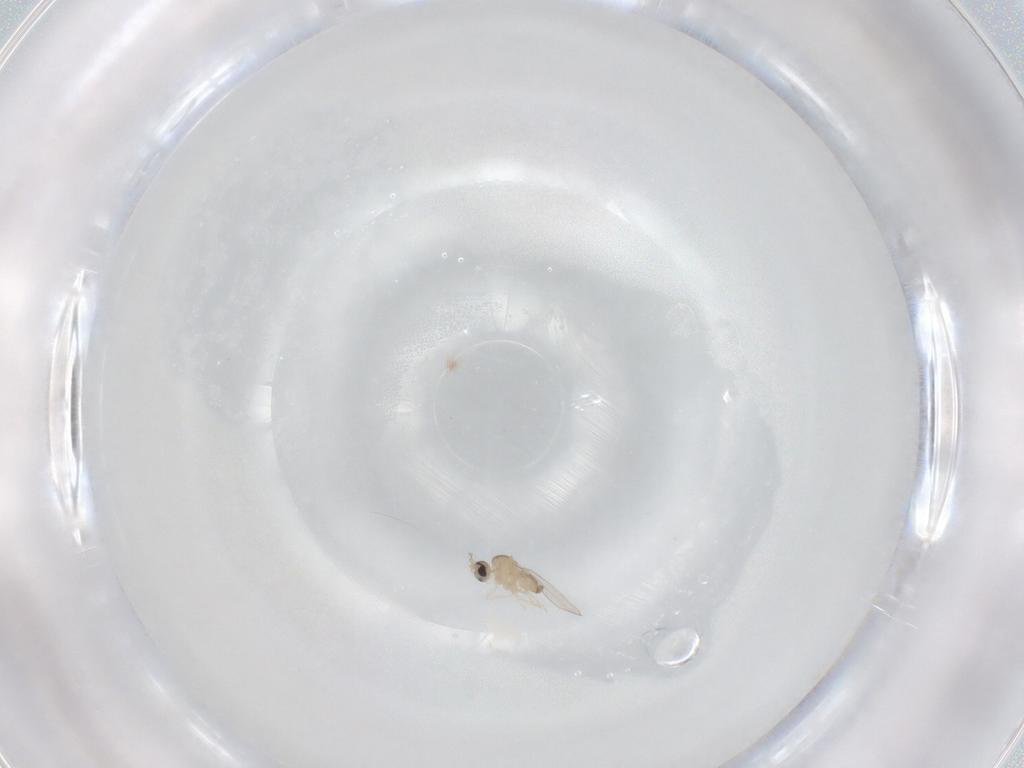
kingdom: Animalia
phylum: Arthropoda
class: Insecta
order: Diptera
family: Cecidomyiidae
